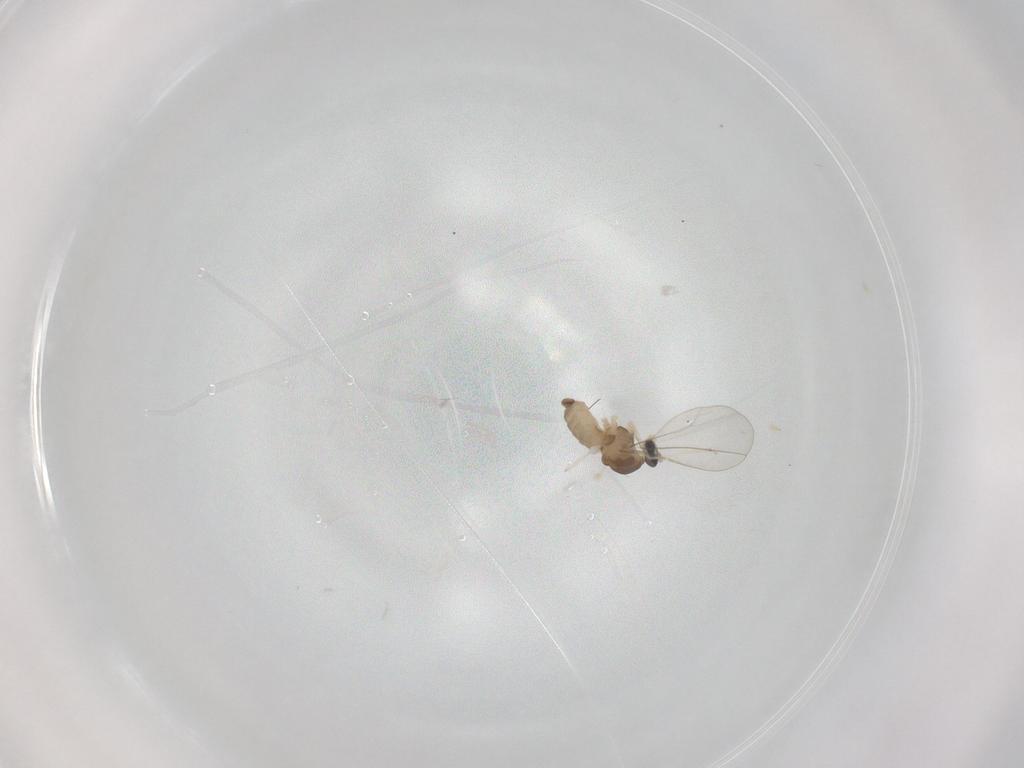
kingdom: Animalia
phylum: Arthropoda
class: Insecta
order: Diptera
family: Cecidomyiidae
